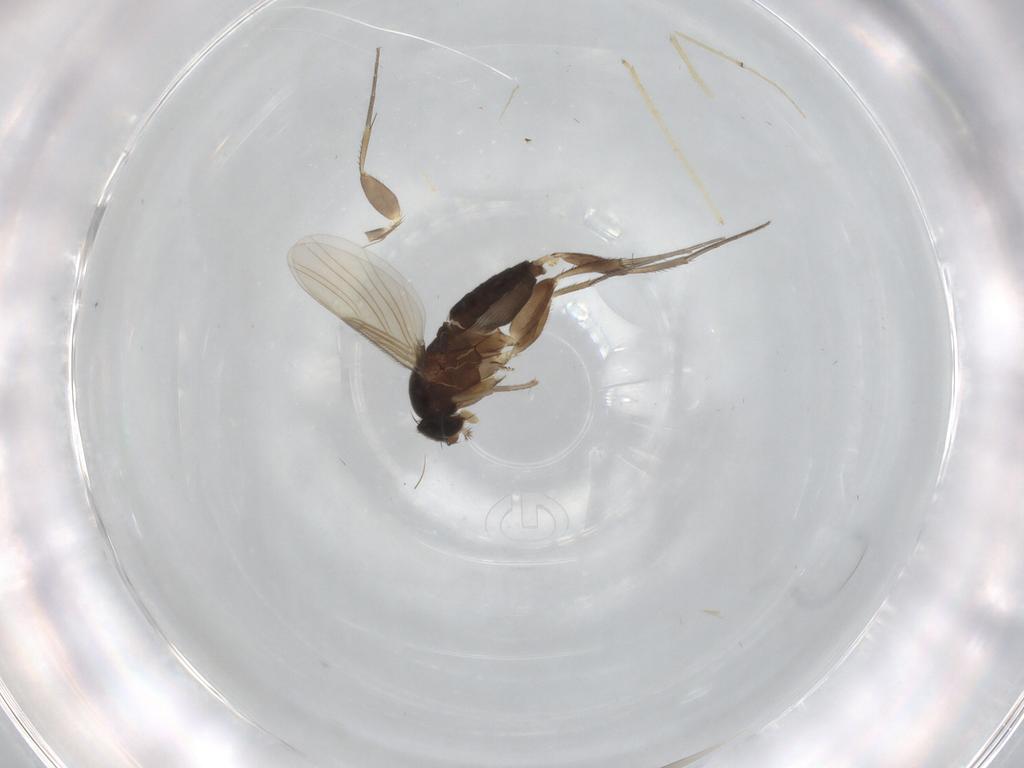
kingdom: Animalia
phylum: Arthropoda
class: Insecta
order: Diptera
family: Phoridae
